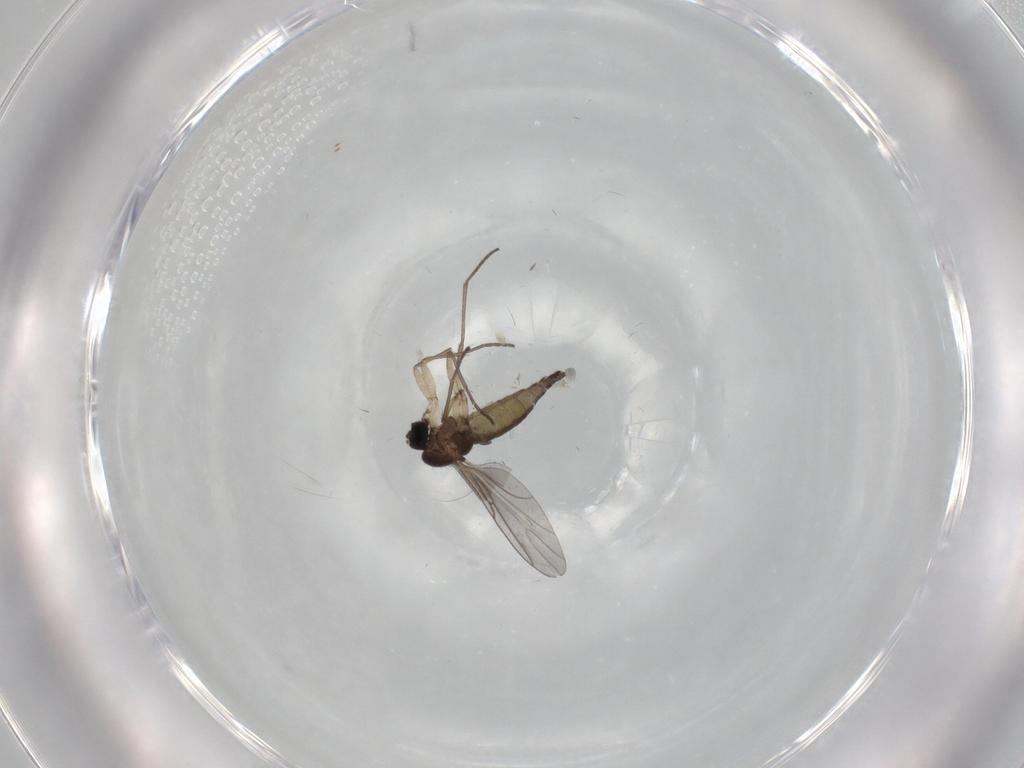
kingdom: Animalia
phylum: Arthropoda
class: Insecta
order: Diptera
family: Sciaridae
